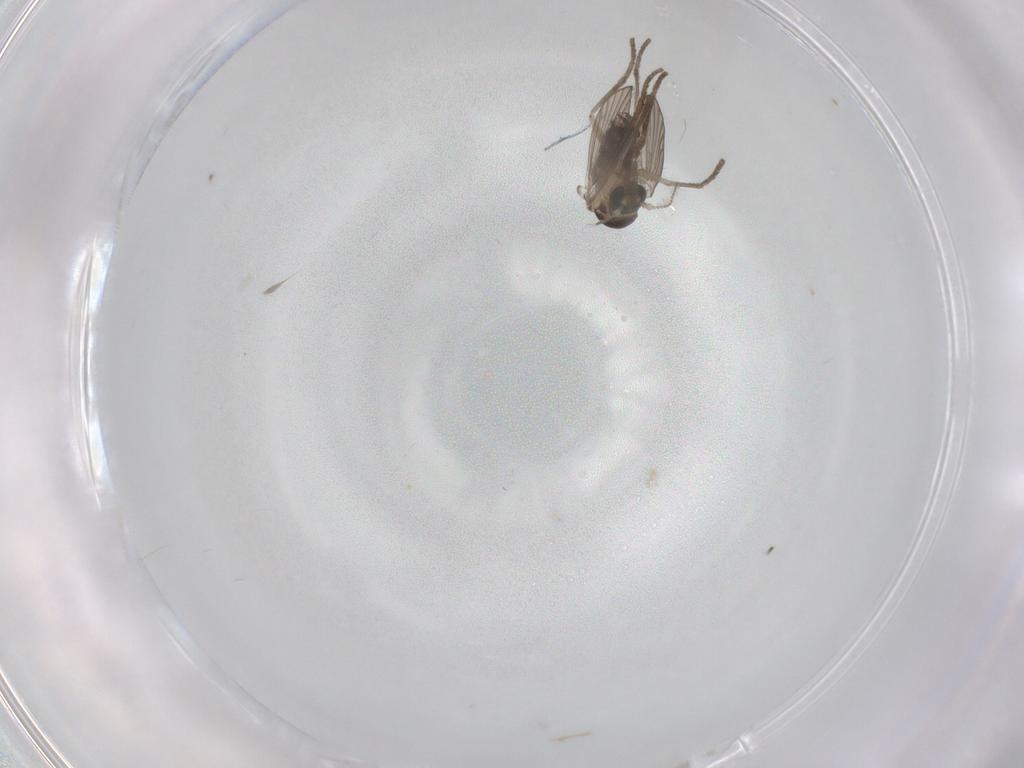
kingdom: Animalia
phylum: Arthropoda
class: Insecta
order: Diptera
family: Psychodidae
